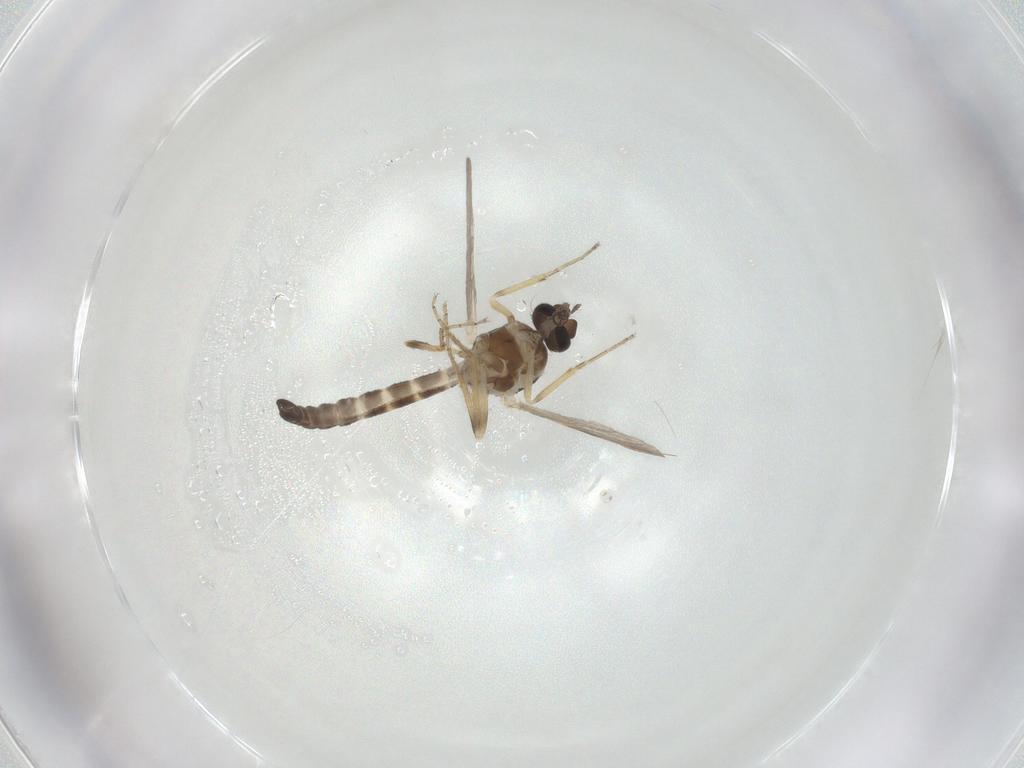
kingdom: Animalia
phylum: Arthropoda
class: Insecta
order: Diptera
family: Ceratopogonidae
